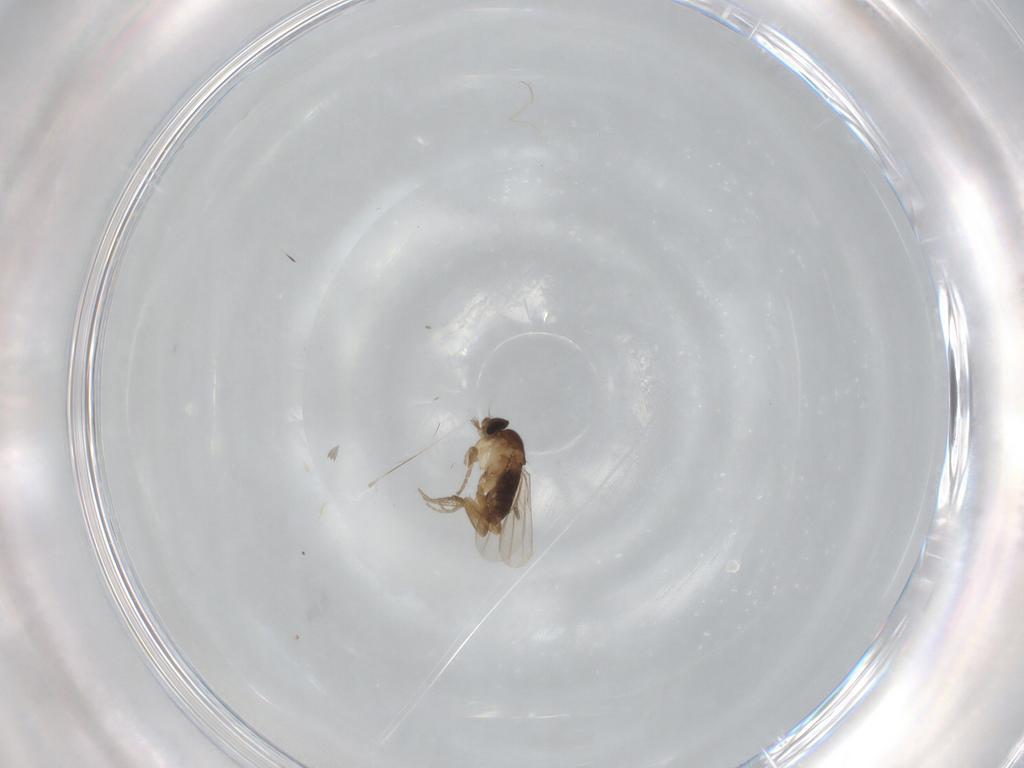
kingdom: Animalia
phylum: Arthropoda
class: Insecta
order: Diptera
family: Phoridae
